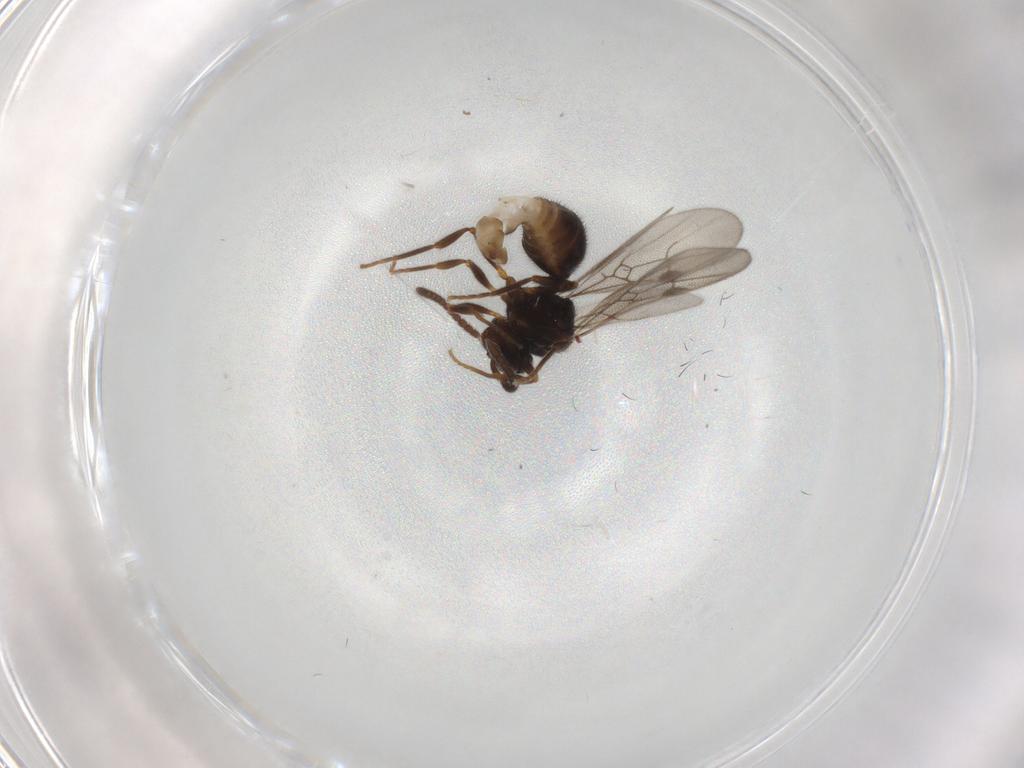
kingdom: Animalia
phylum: Arthropoda
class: Insecta
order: Hymenoptera
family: Formicidae
